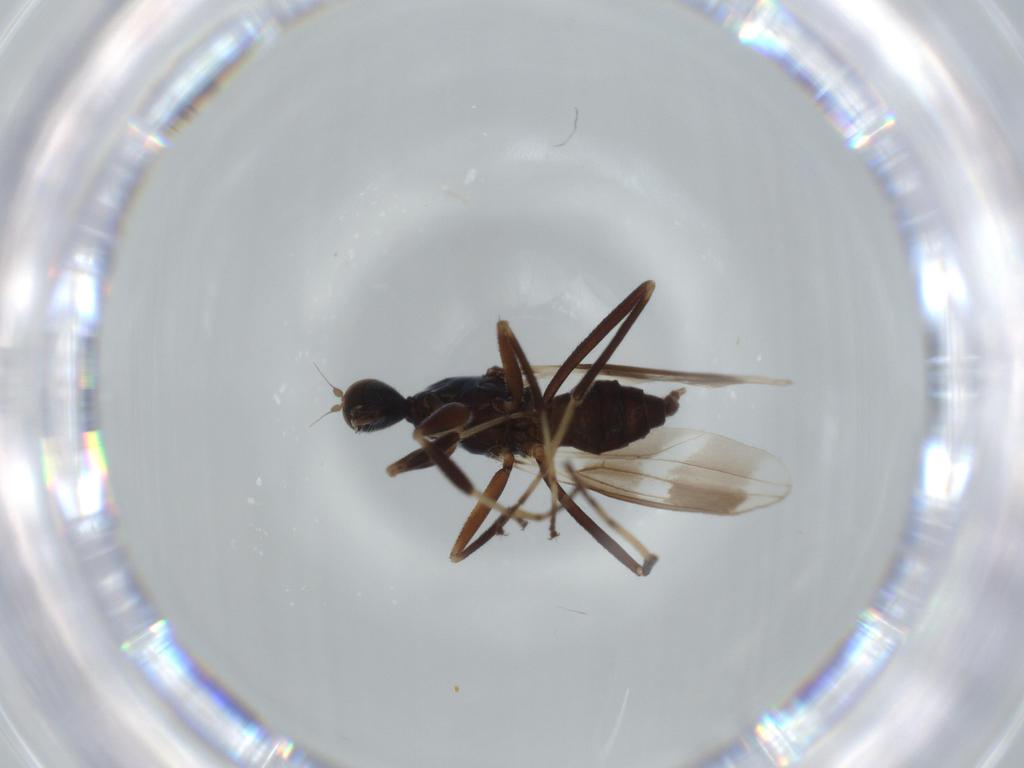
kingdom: Animalia
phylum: Arthropoda
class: Insecta
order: Diptera
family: Hybotidae
